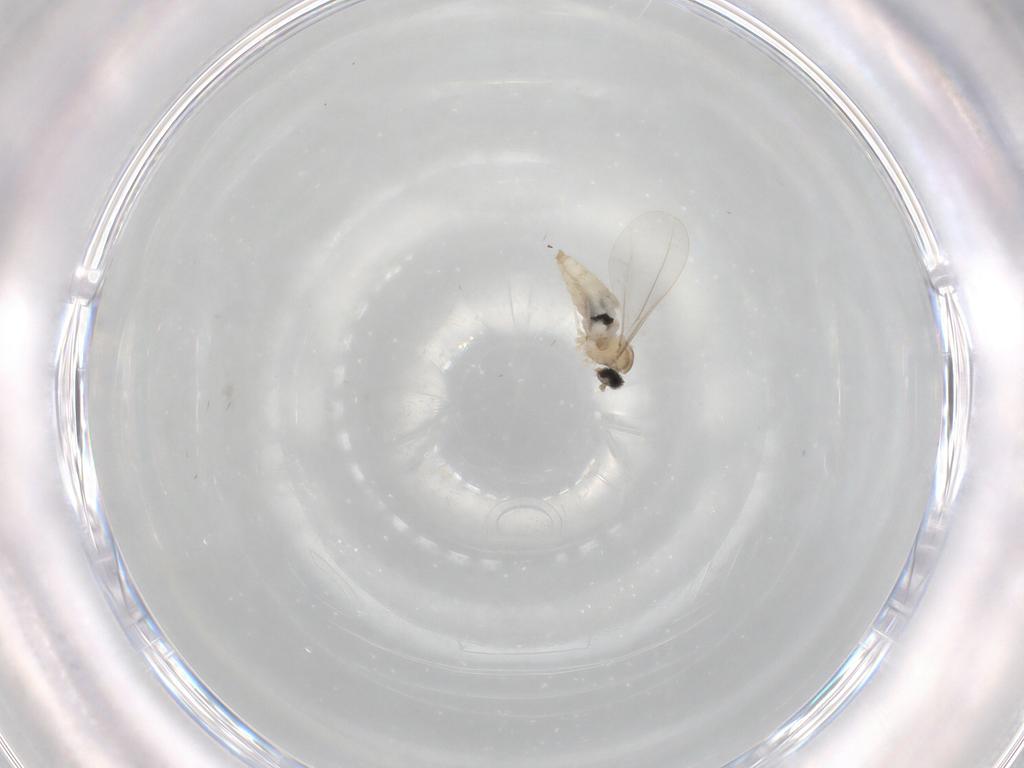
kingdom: Animalia
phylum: Arthropoda
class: Insecta
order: Diptera
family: Cecidomyiidae
